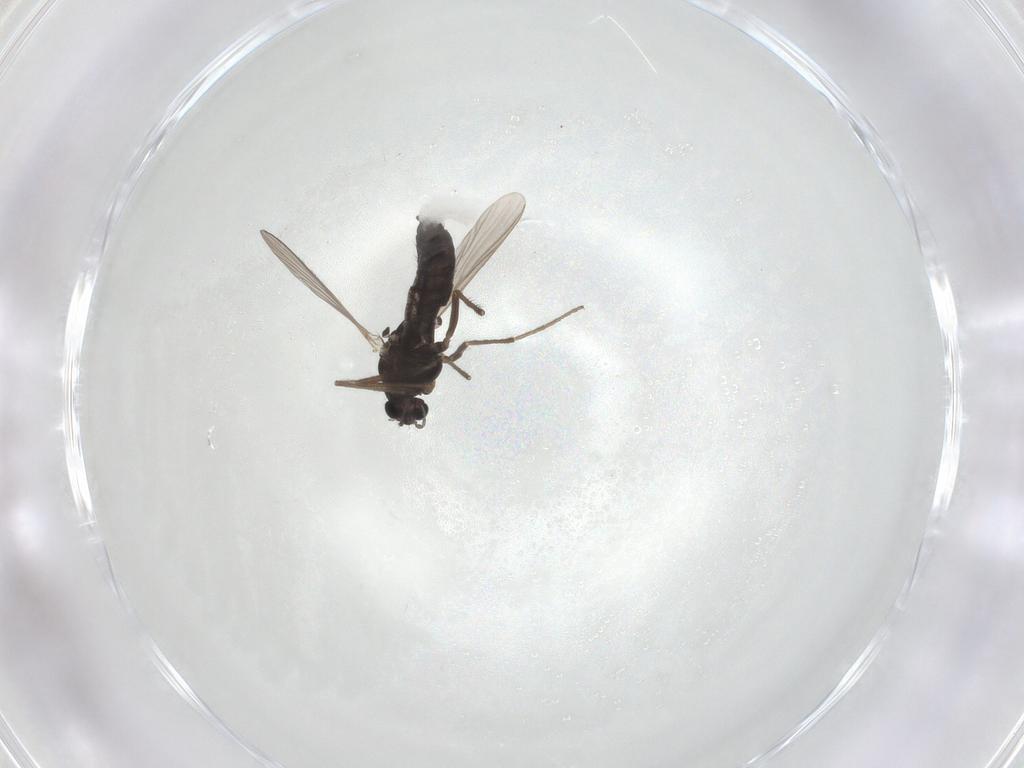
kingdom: Animalia
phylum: Arthropoda
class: Insecta
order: Diptera
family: Chironomidae
